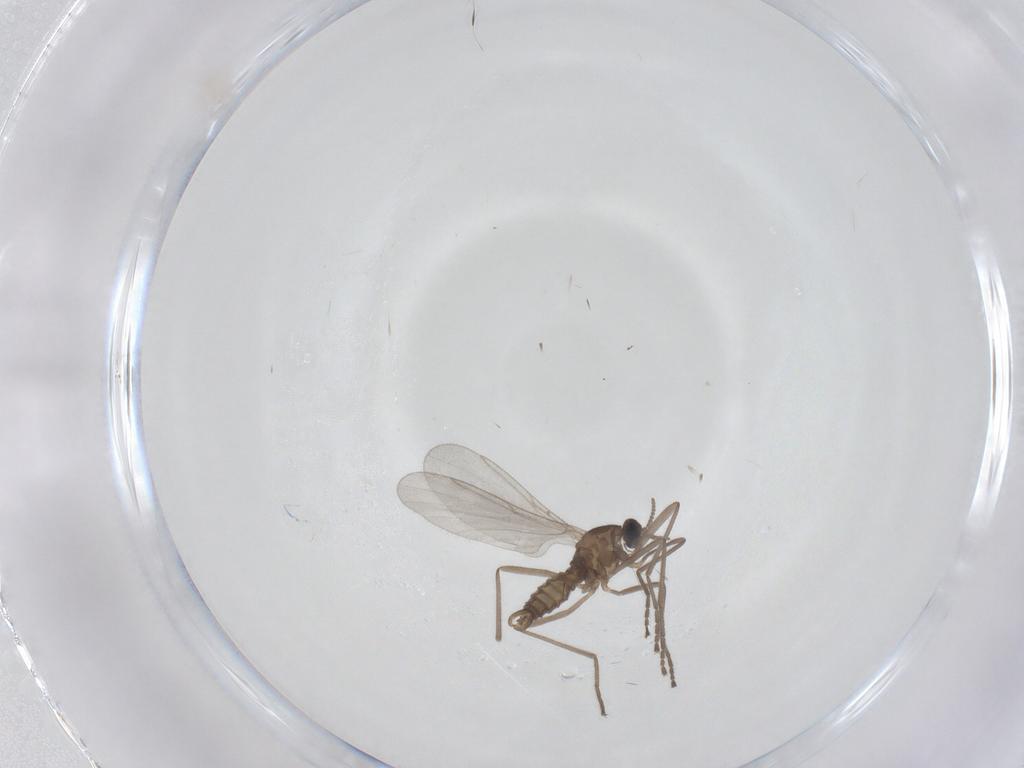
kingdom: Animalia
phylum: Arthropoda
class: Insecta
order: Diptera
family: Cecidomyiidae
